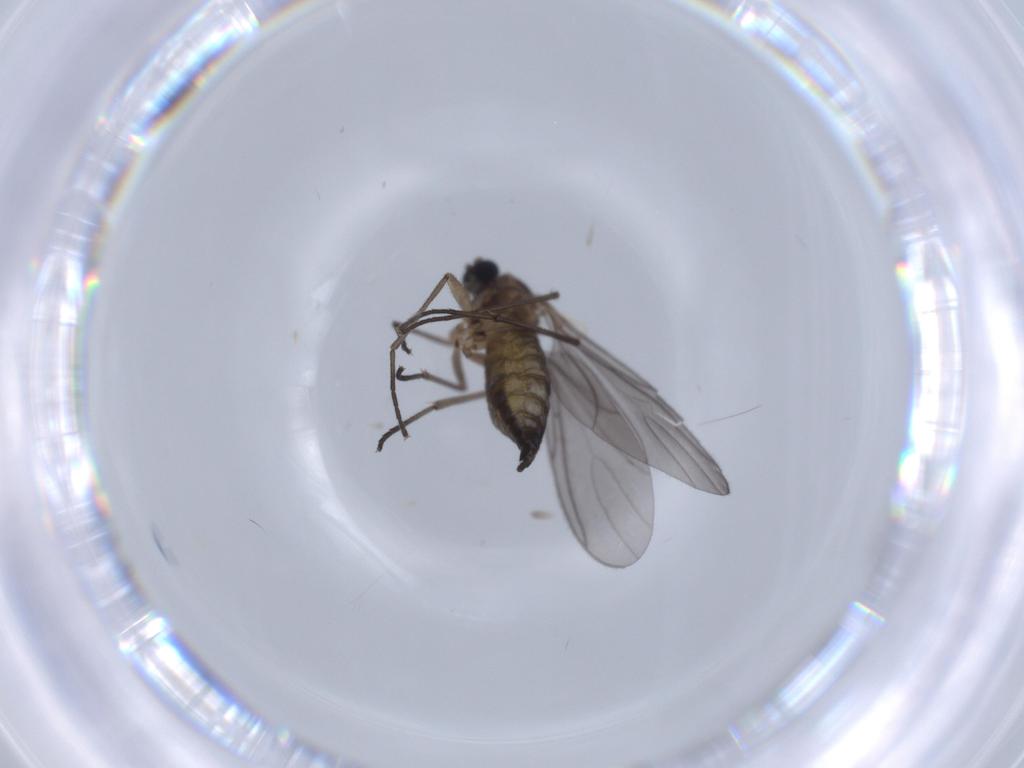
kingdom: Animalia
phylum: Arthropoda
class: Insecta
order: Diptera
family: Sciaridae
